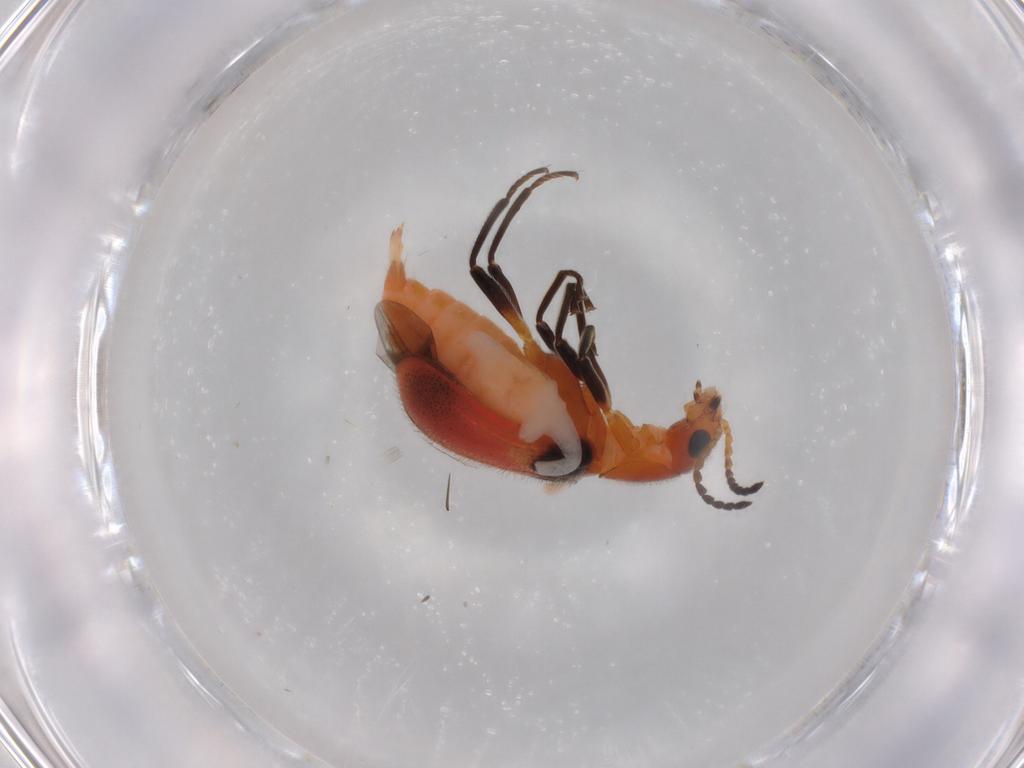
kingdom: Animalia
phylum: Arthropoda
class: Insecta
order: Coleoptera
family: Melyridae
